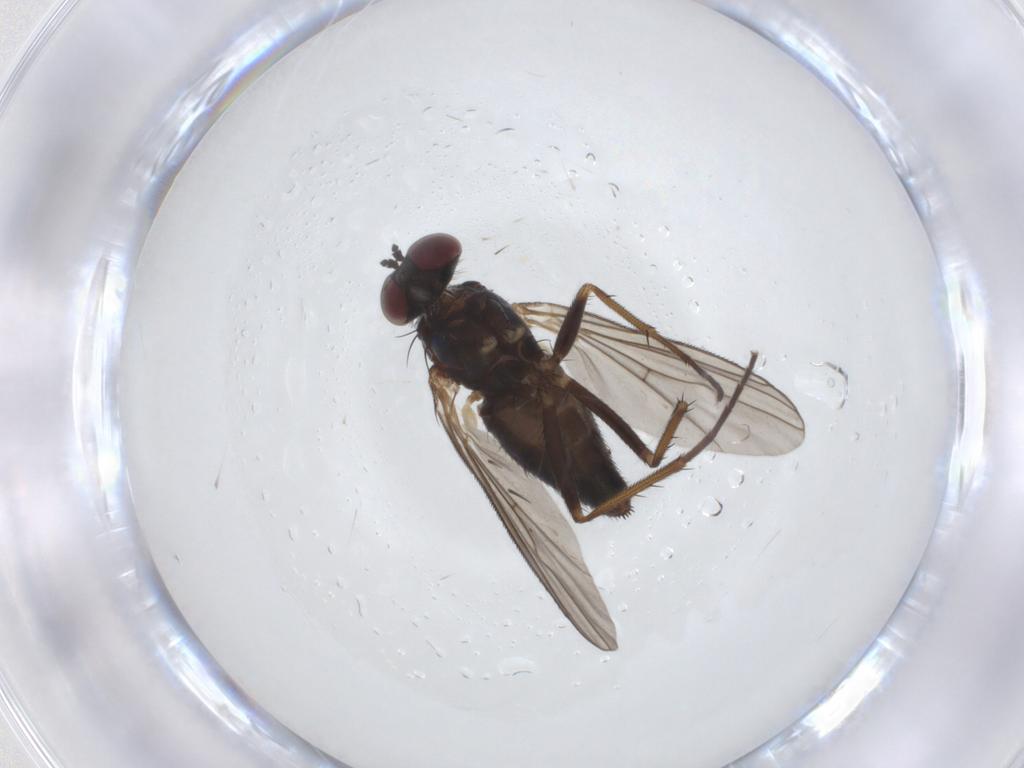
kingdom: Animalia
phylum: Arthropoda
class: Insecta
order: Diptera
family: Dolichopodidae
